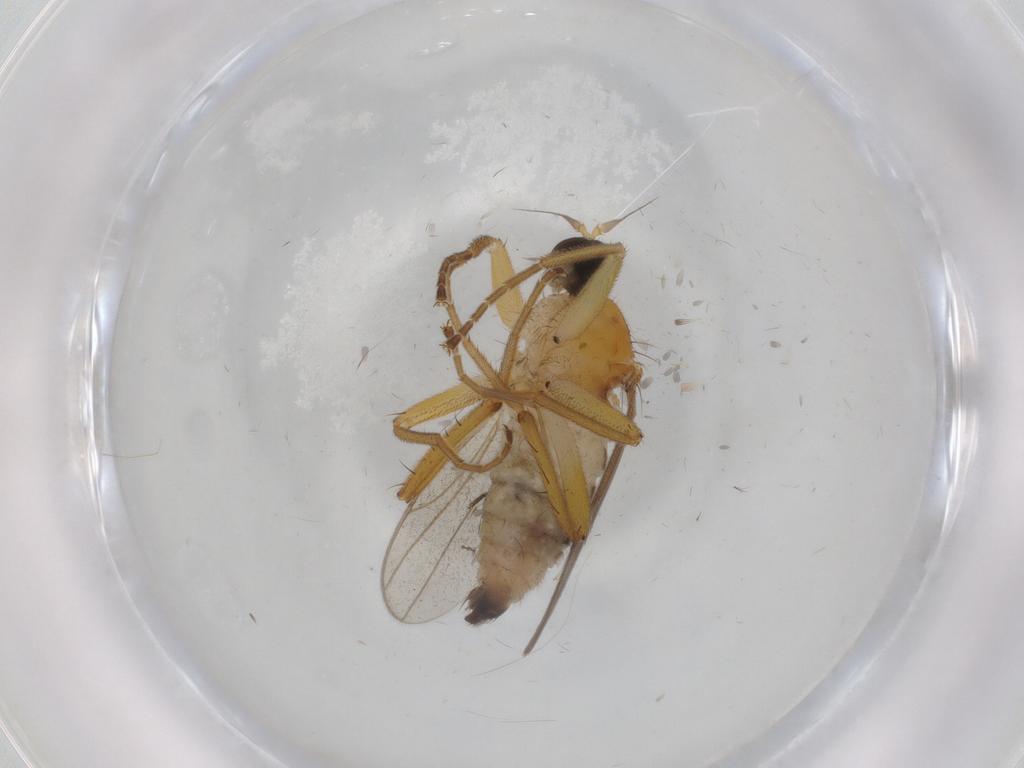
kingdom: Animalia
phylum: Arthropoda
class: Insecta
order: Diptera
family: Hybotidae
